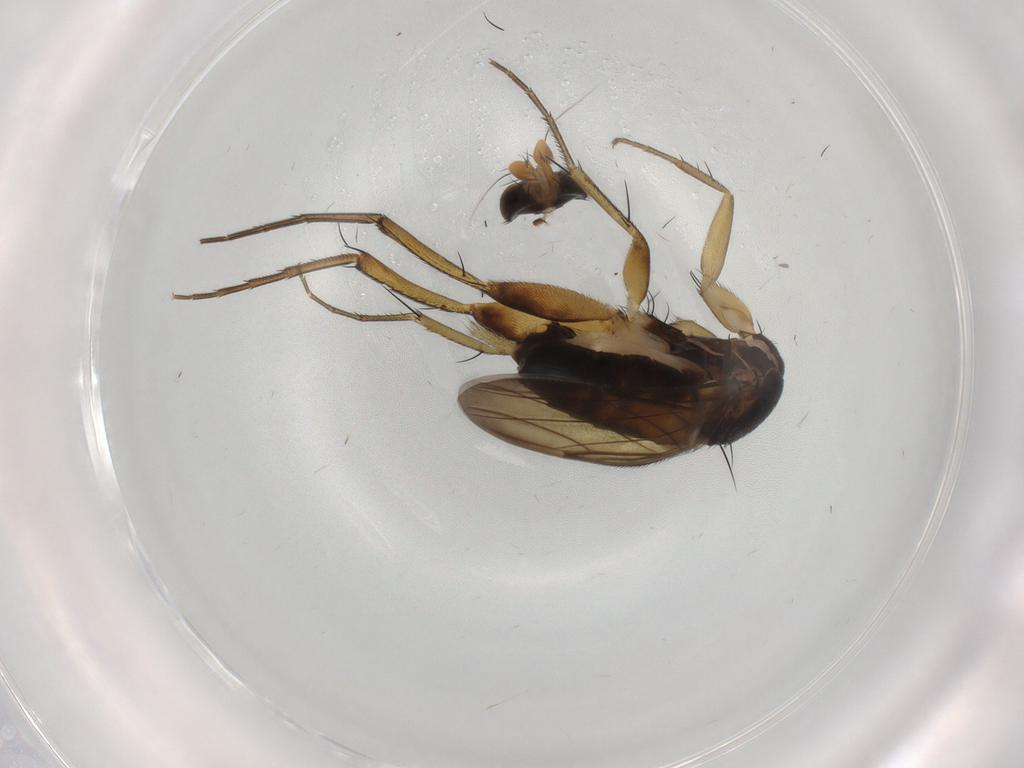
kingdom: Animalia
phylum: Arthropoda
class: Insecta
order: Diptera
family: Phoridae
